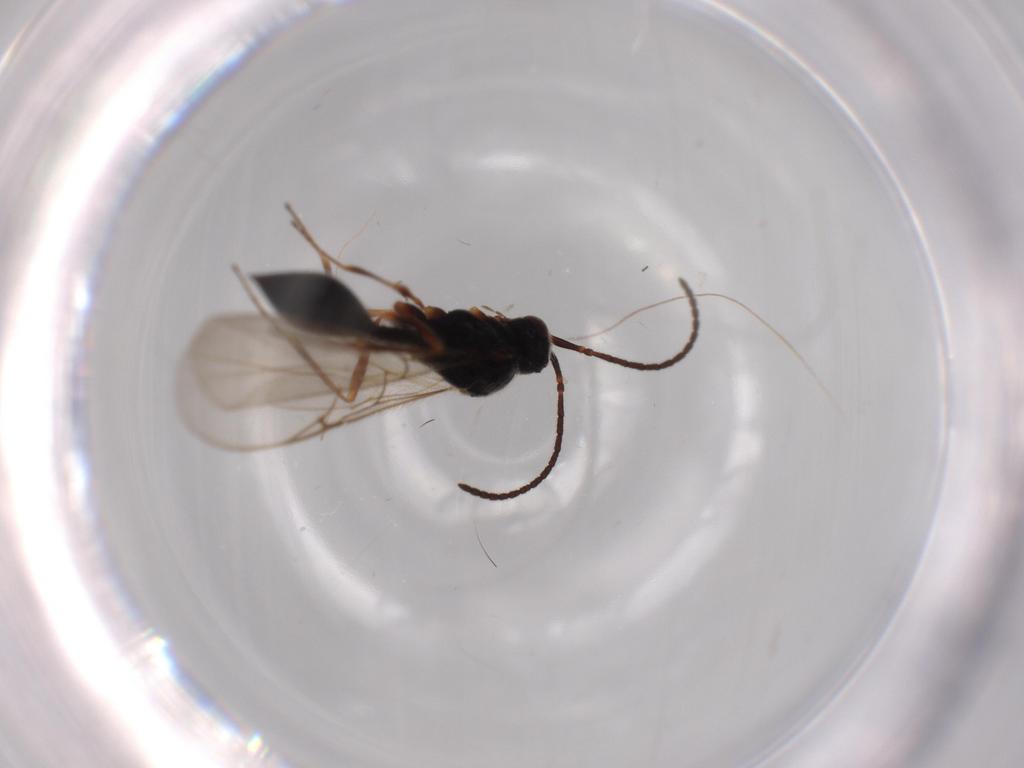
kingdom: Animalia
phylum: Arthropoda
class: Insecta
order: Hymenoptera
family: Diapriidae
